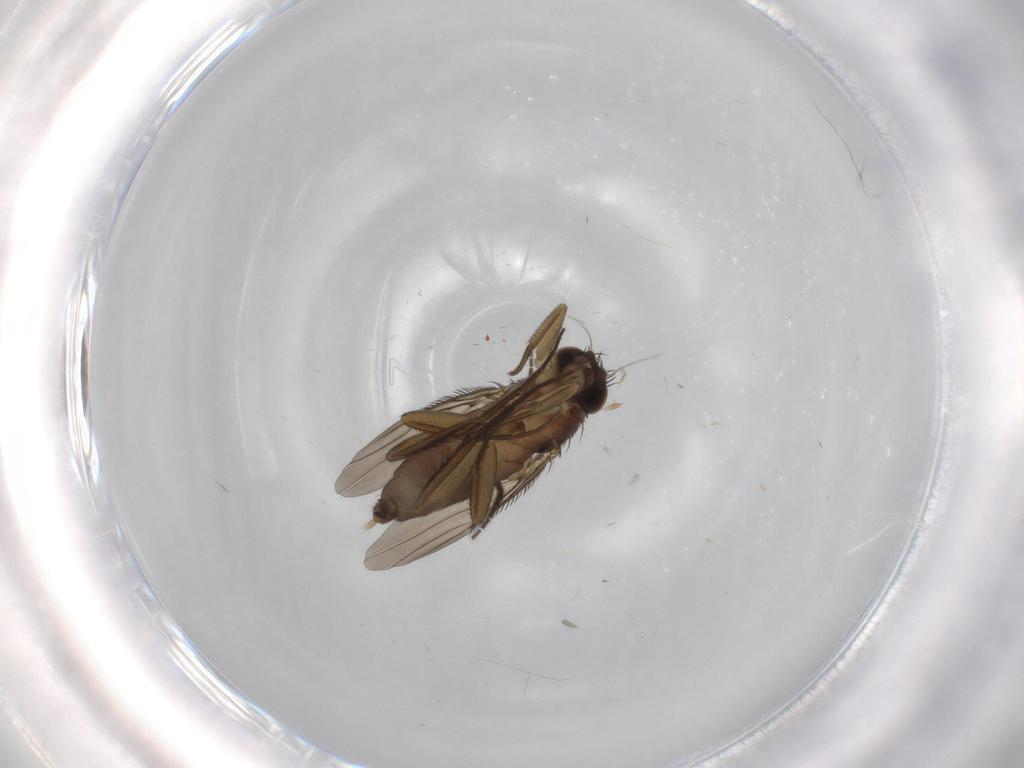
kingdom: Animalia
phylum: Arthropoda
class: Insecta
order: Diptera
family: Phoridae
